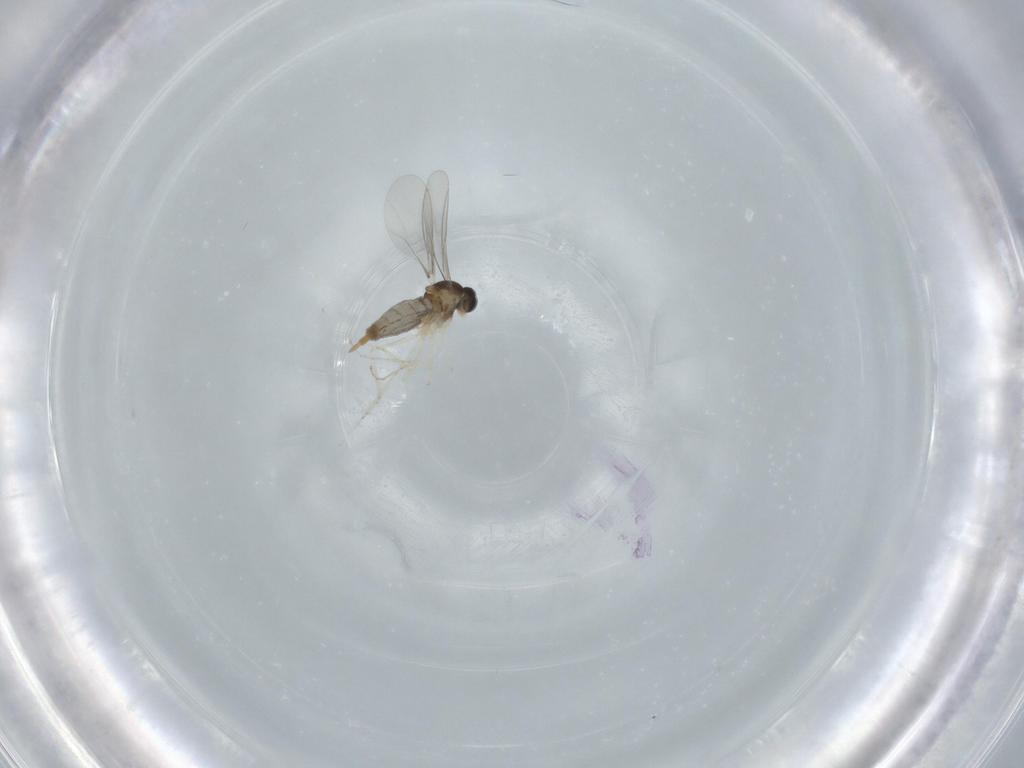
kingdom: Animalia
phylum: Arthropoda
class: Insecta
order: Diptera
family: Cecidomyiidae
